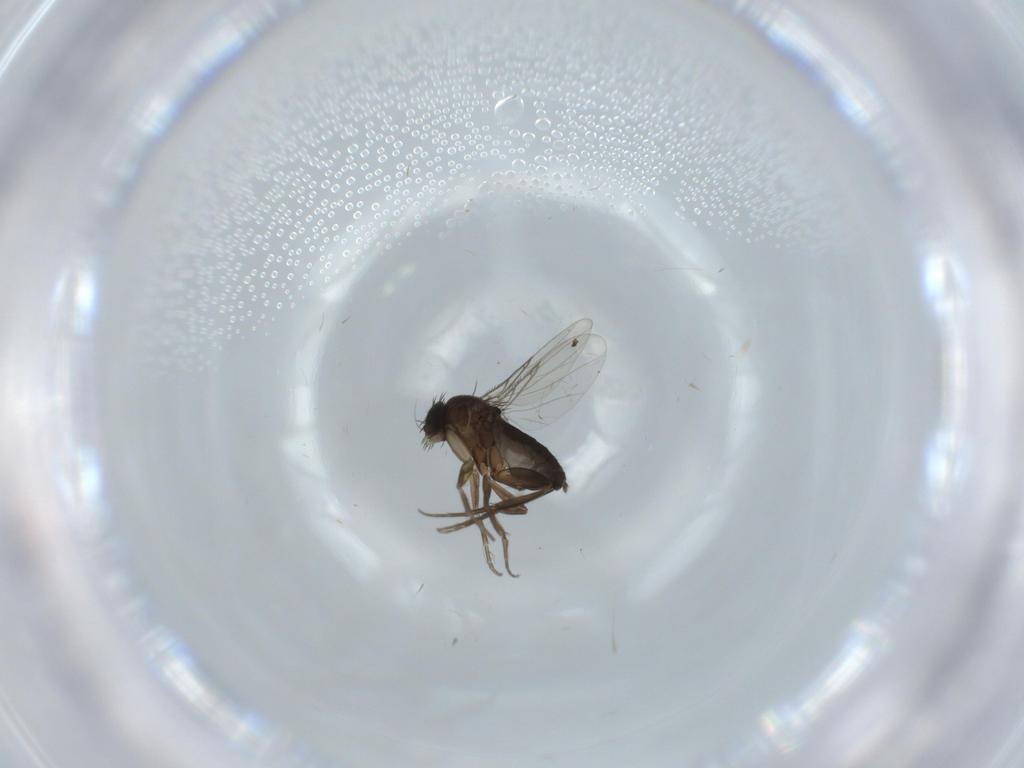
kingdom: Animalia
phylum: Arthropoda
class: Insecta
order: Diptera
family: Phoridae
